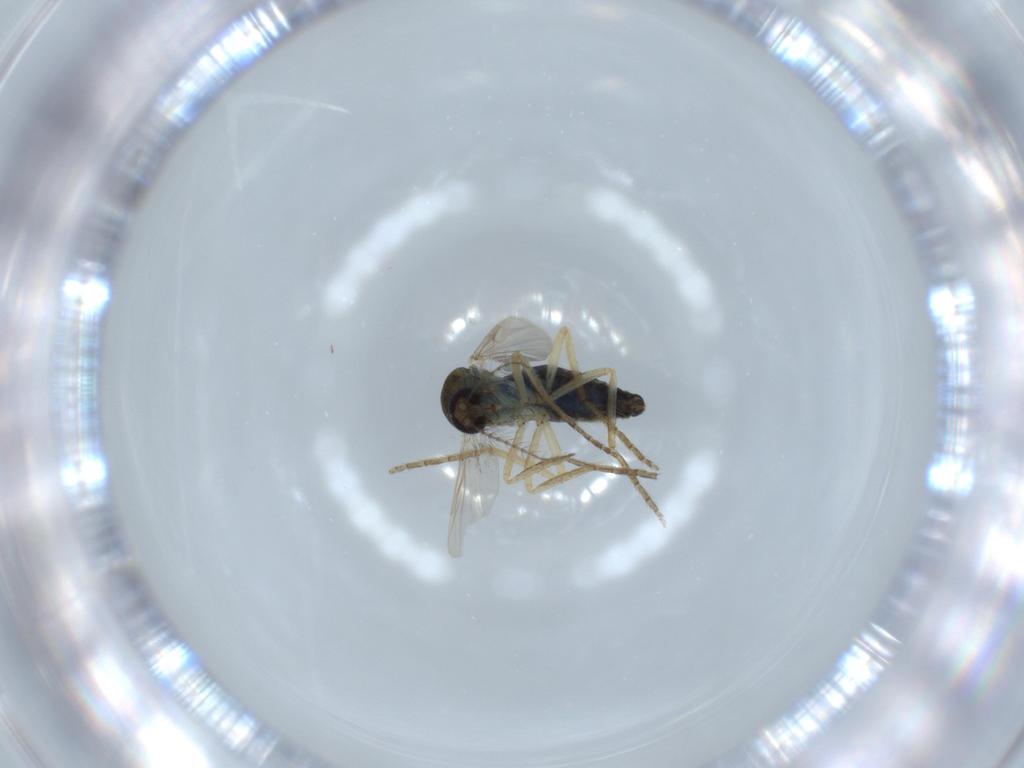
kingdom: Animalia
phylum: Arthropoda
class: Insecta
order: Diptera
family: Ceratopogonidae
